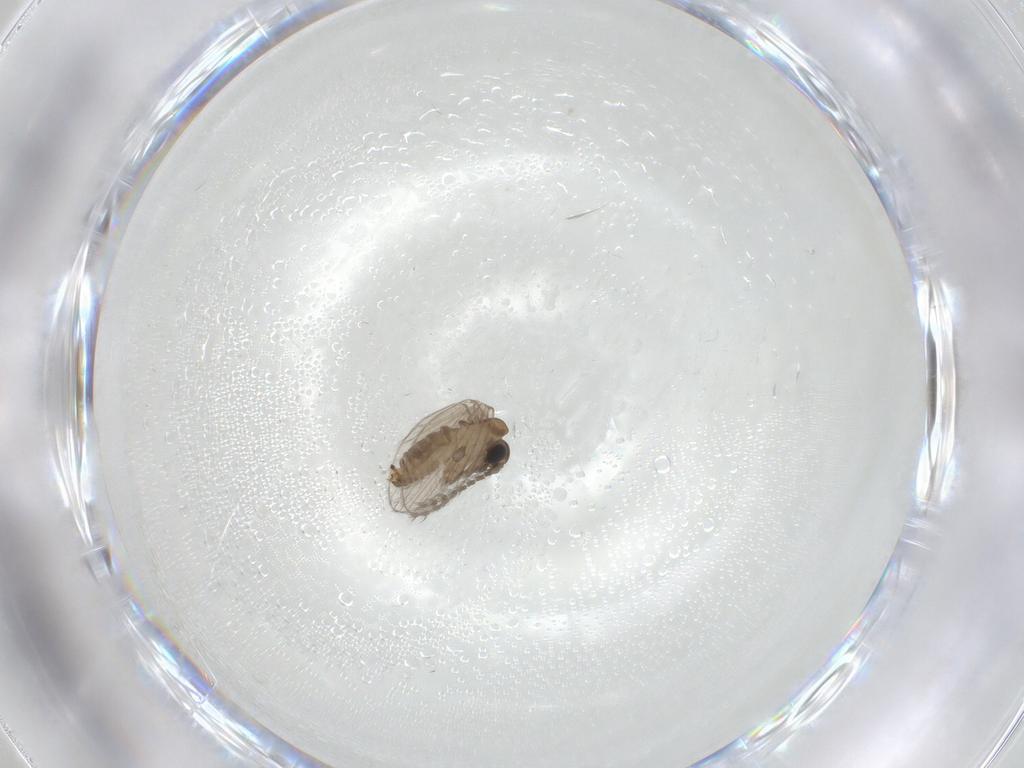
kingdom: Animalia
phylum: Arthropoda
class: Insecta
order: Diptera
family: Psychodidae
